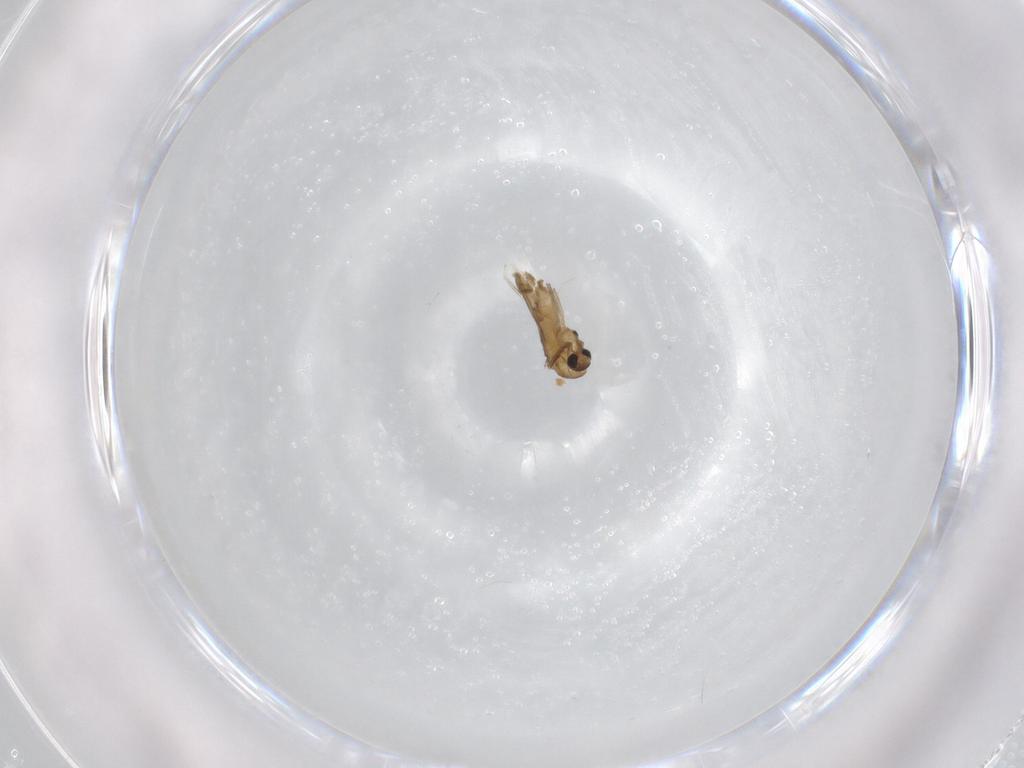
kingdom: Animalia
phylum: Arthropoda
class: Insecta
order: Diptera
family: Chironomidae
